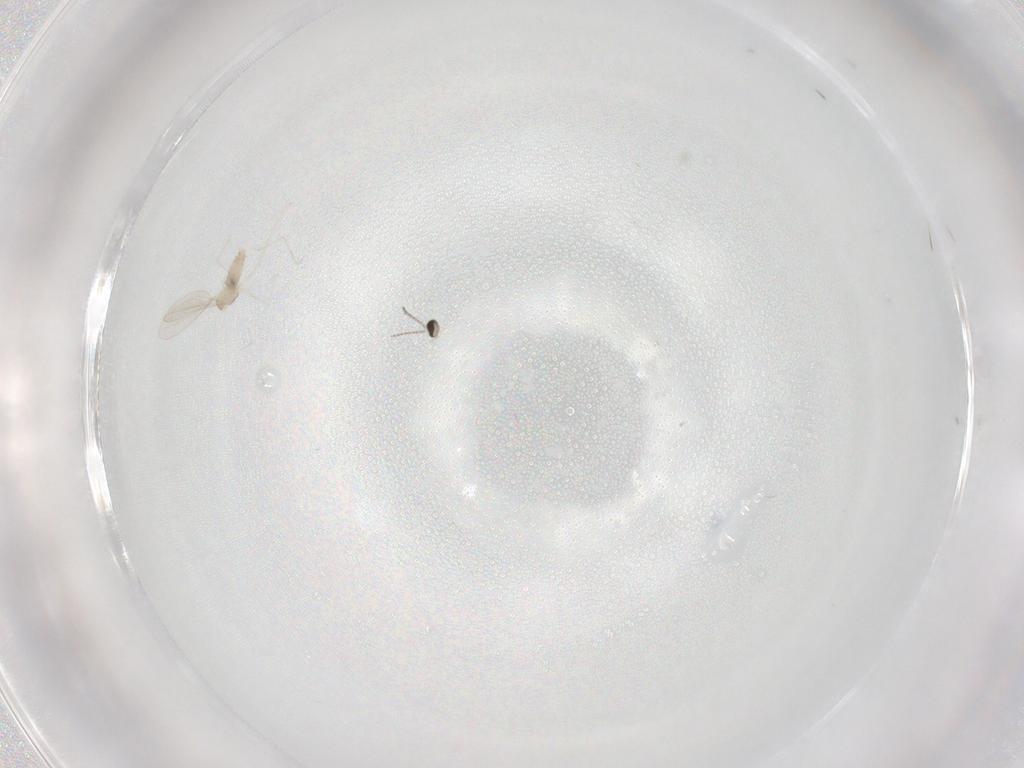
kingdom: Animalia
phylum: Arthropoda
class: Insecta
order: Diptera
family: Cecidomyiidae
